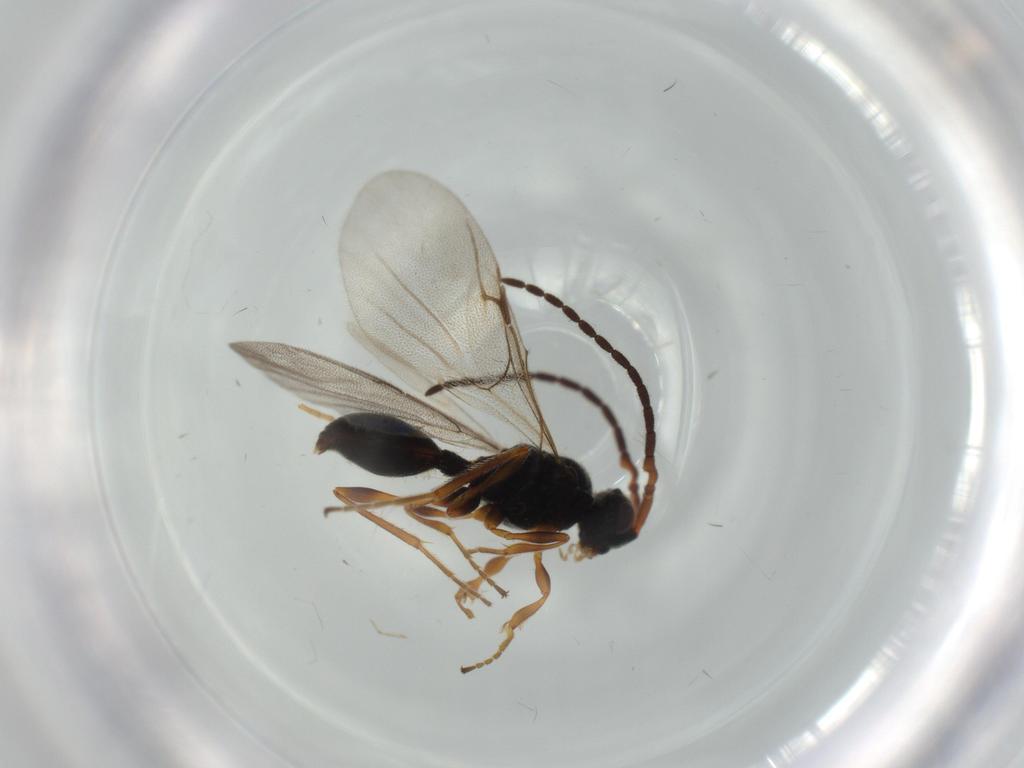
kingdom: Animalia
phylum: Arthropoda
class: Insecta
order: Hymenoptera
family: Braconidae
